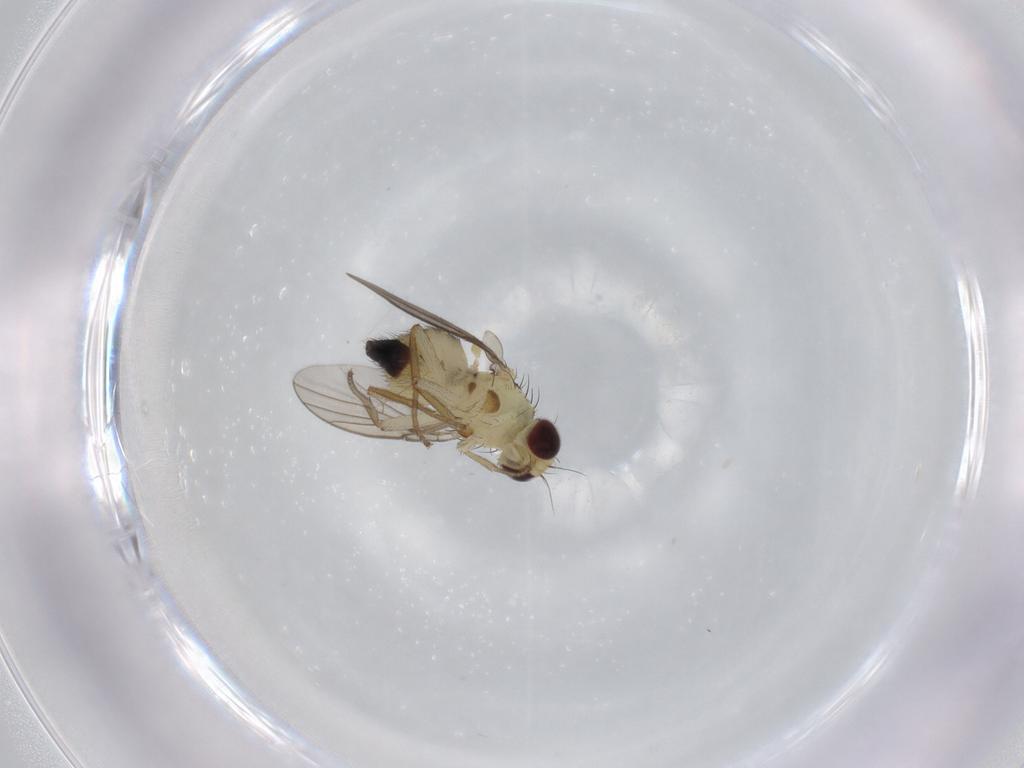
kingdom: Animalia
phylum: Arthropoda
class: Insecta
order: Diptera
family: Agromyzidae
